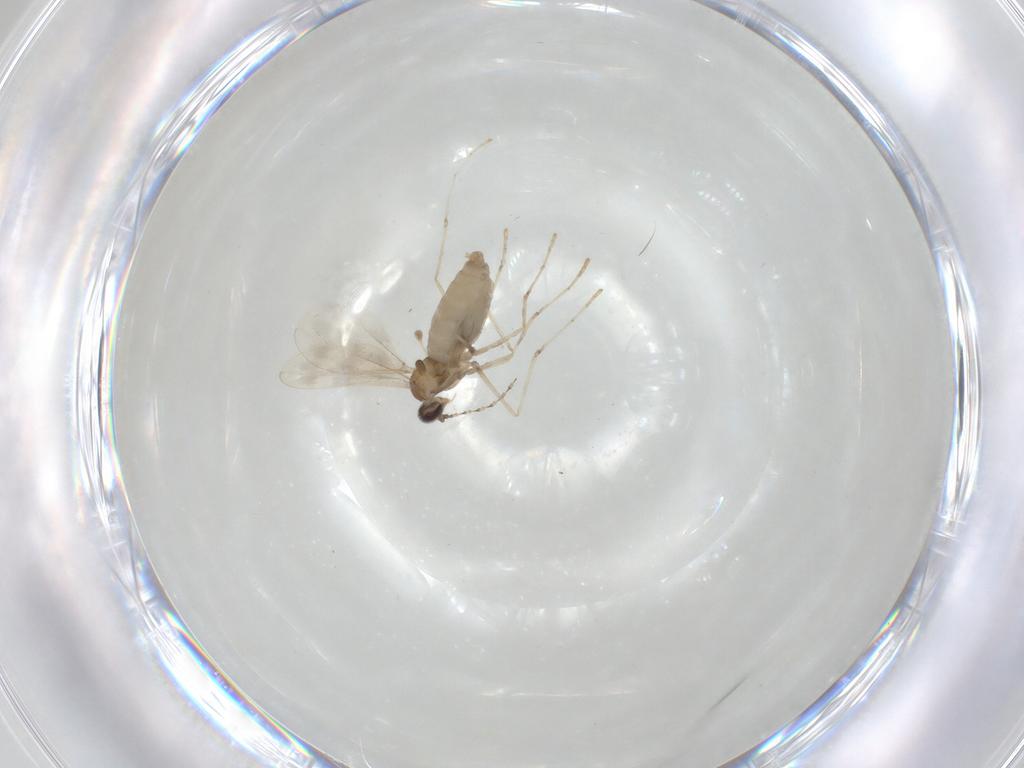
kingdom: Animalia
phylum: Arthropoda
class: Insecta
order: Diptera
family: Cecidomyiidae
